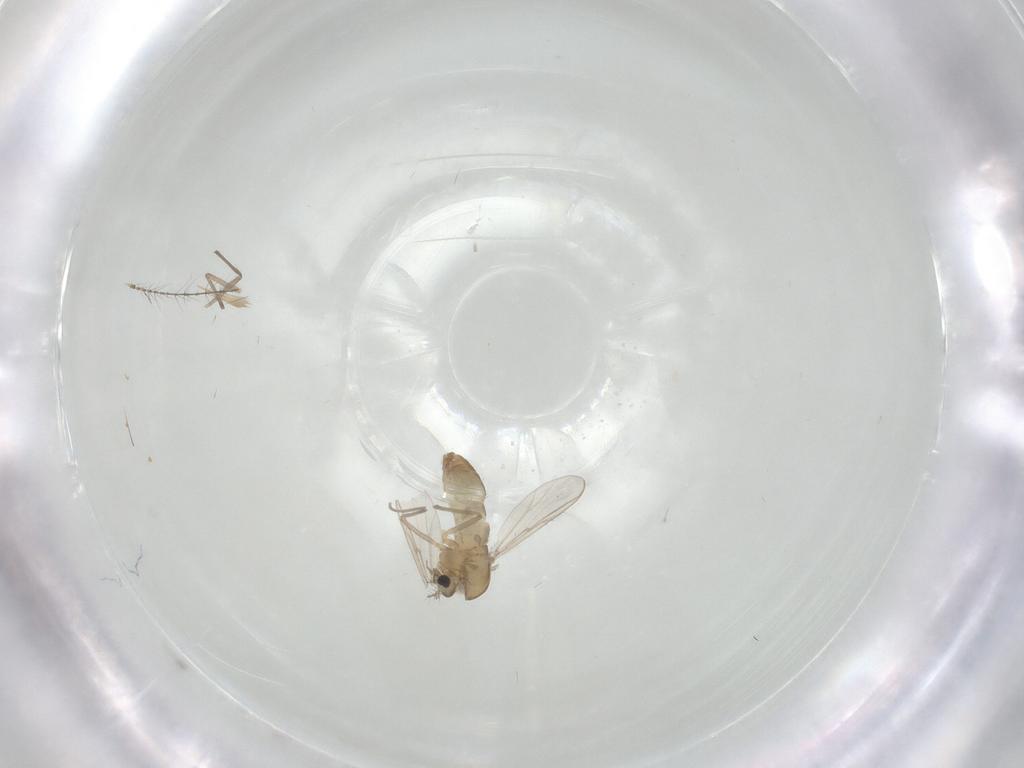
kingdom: Animalia
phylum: Arthropoda
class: Insecta
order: Diptera
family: Chironomidae
